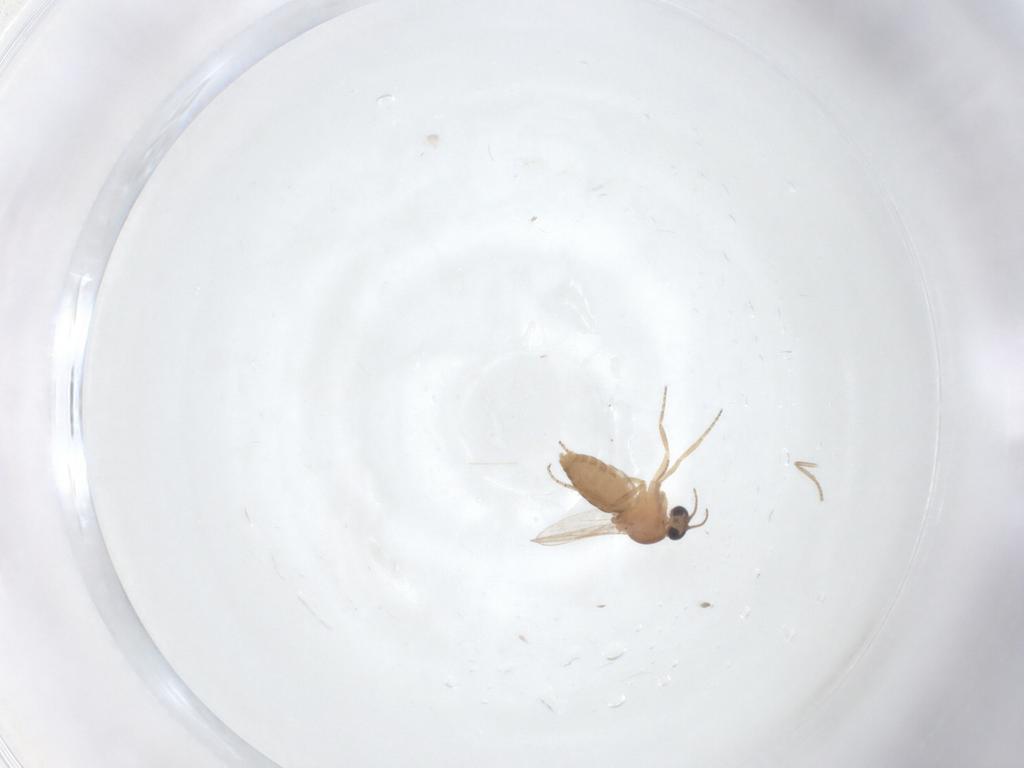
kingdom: Animalia
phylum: Arthropoda
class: Insecta
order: Diptera
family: Ceratopogonidae
